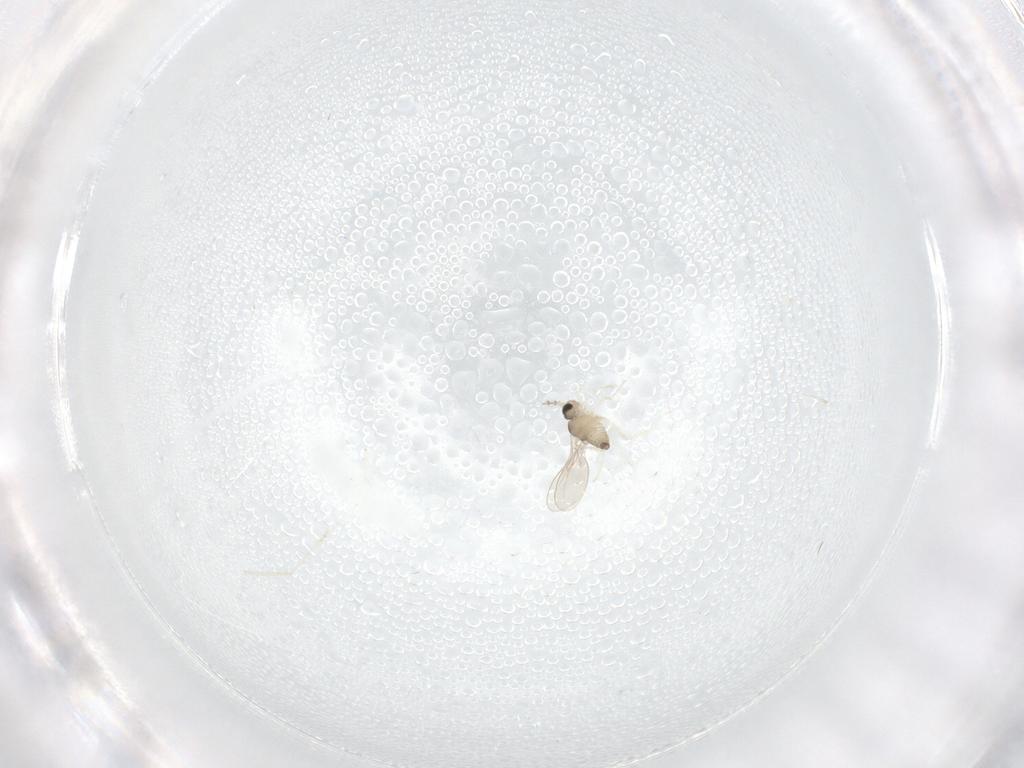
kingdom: Animalia
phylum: Arthropoda
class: Insecta
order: Diptera
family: Cecidomyiidae
